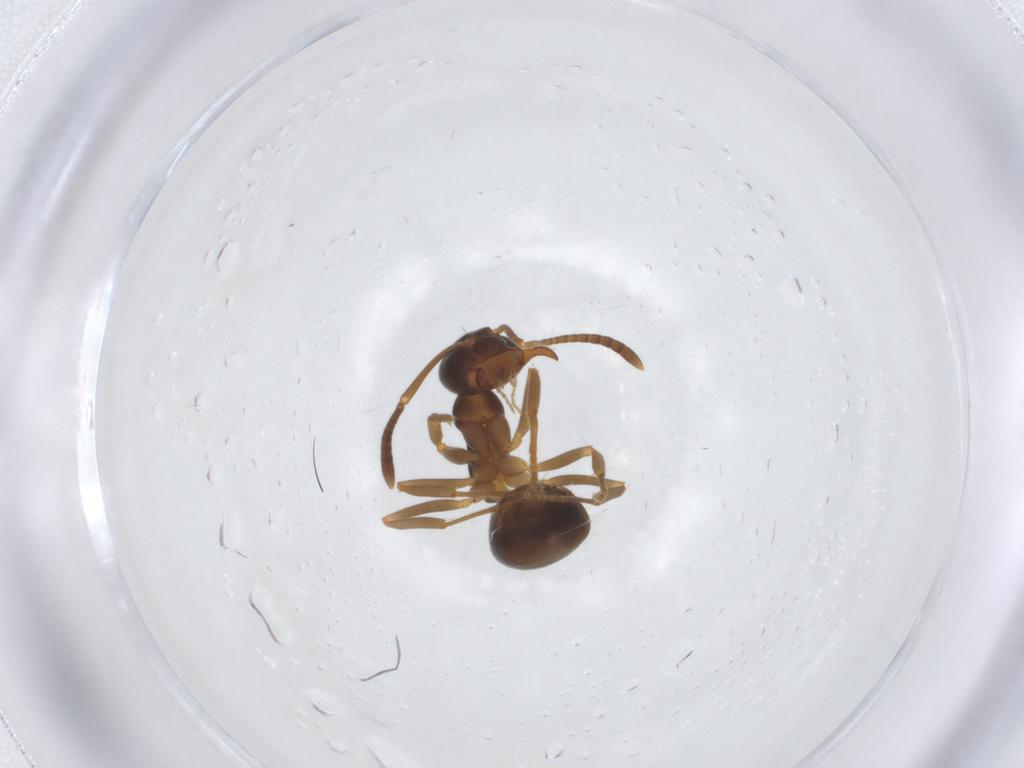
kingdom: Animalia
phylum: Arthropoda
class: Insecta
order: Hymenoptera
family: Formicidae
